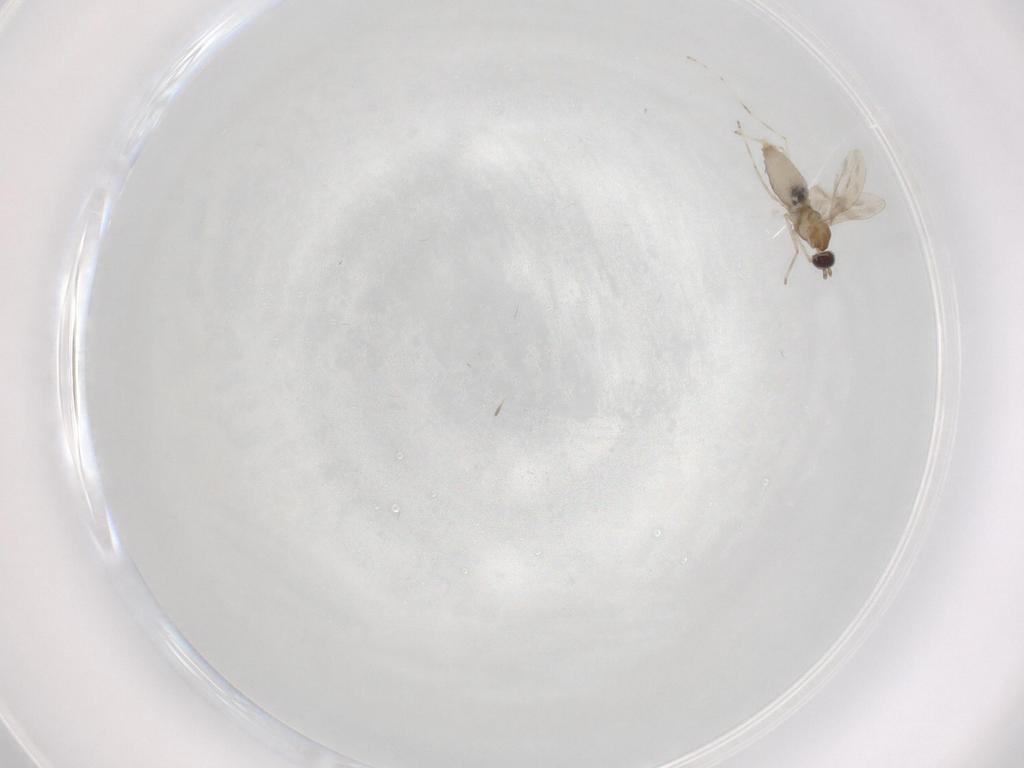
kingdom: Animalia
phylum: Arthropoda
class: Insecta
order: Diptera
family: Cecidomyiidae
